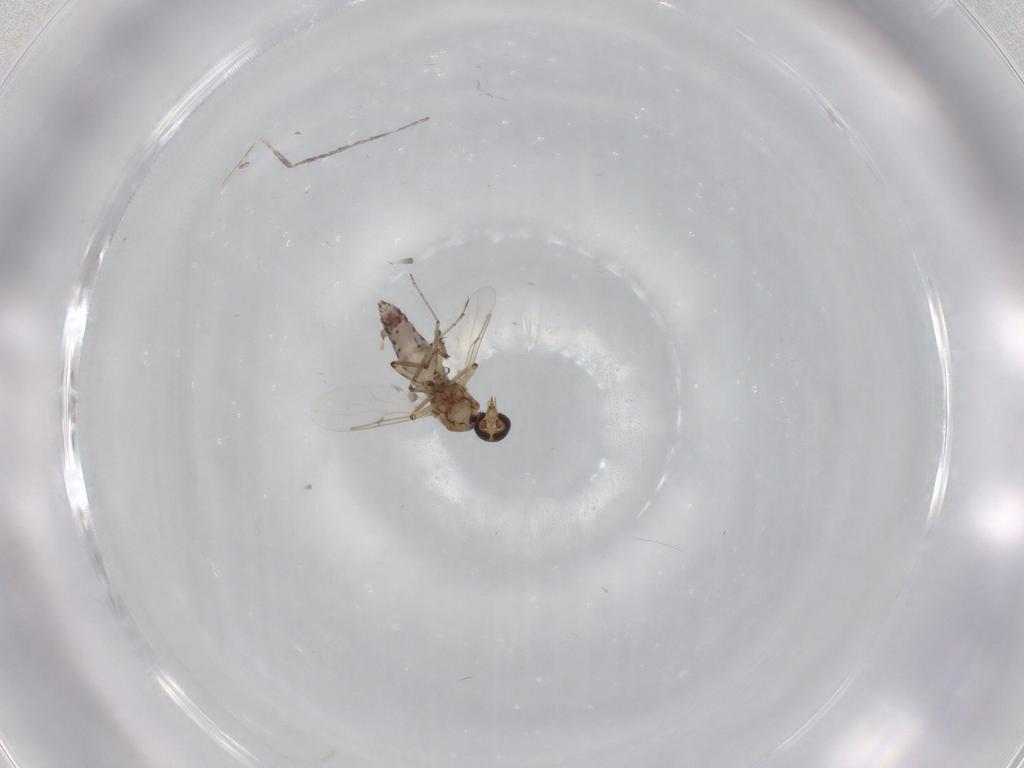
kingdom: Animalia
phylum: Arthropoda
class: Insecta
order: Diptera
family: Ceratopogonidae
